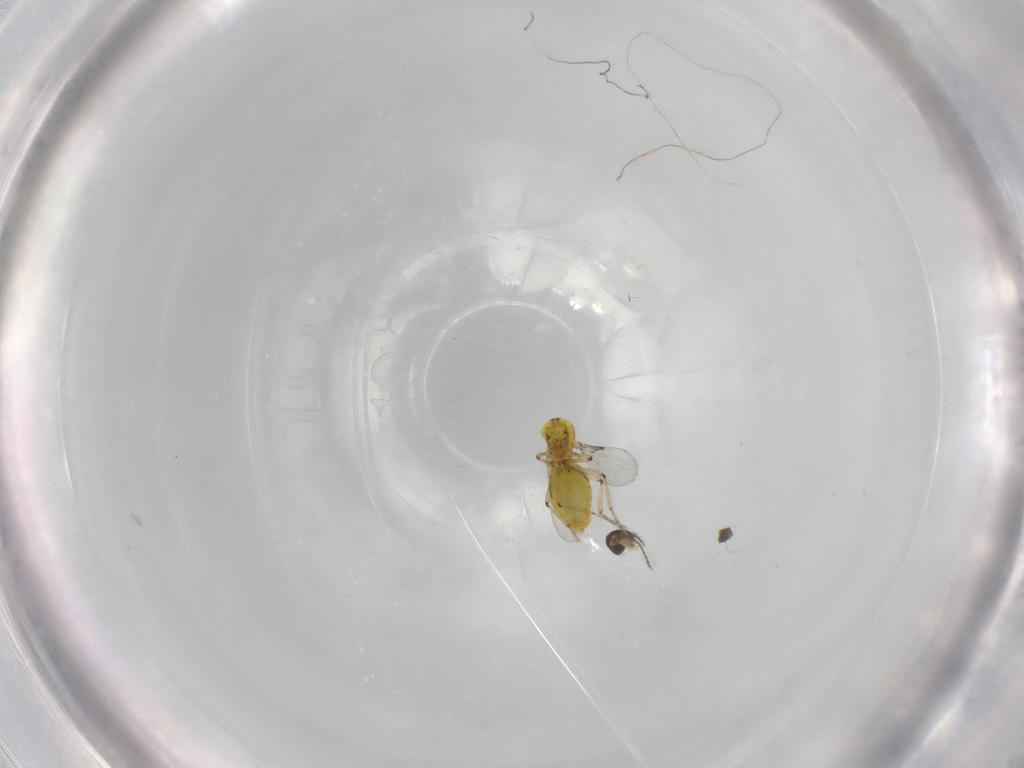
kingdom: Animalia
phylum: Arthropoda
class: Insecta
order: Diptera
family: Ceratopogonidae
